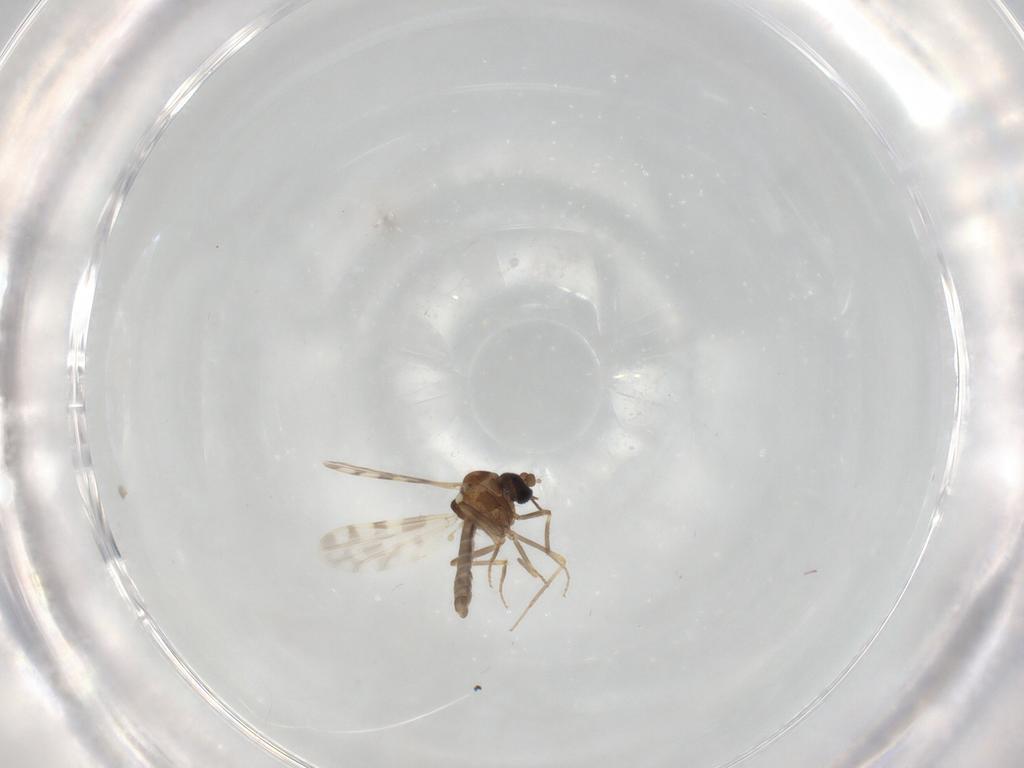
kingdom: Animalia
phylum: Arthropoda
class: Insecta
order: Diptera
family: Ceratopogonidae
